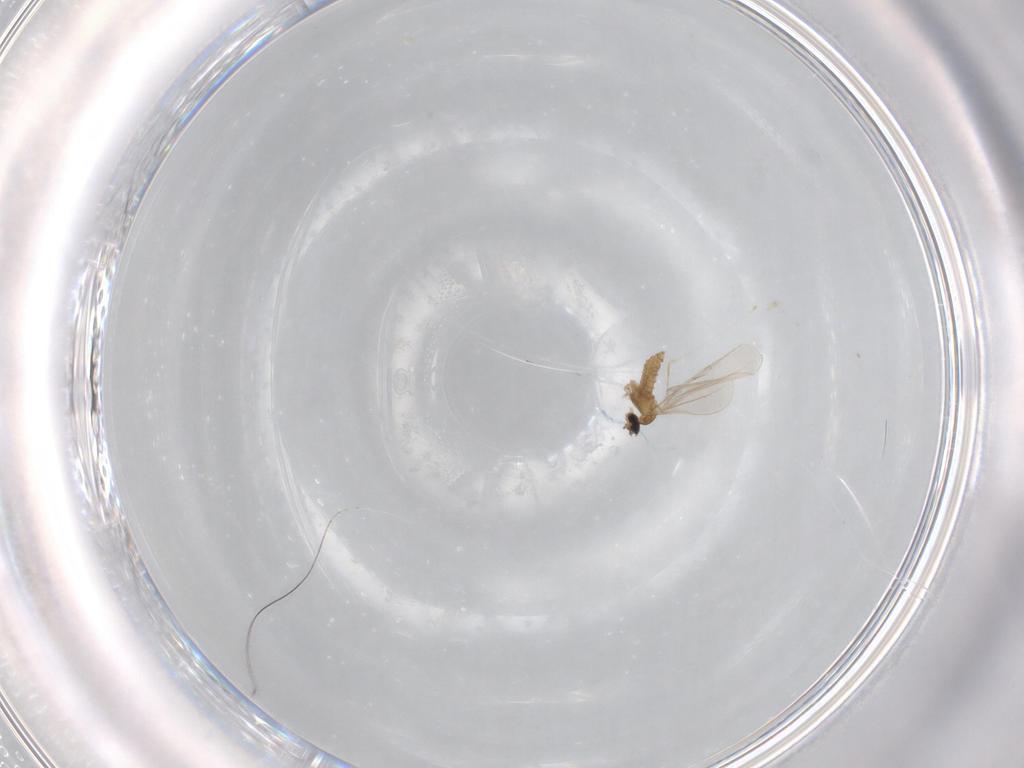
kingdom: Animalia
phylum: Arthropoda
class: Insecta
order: Diptera
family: Cecidomyiidae
